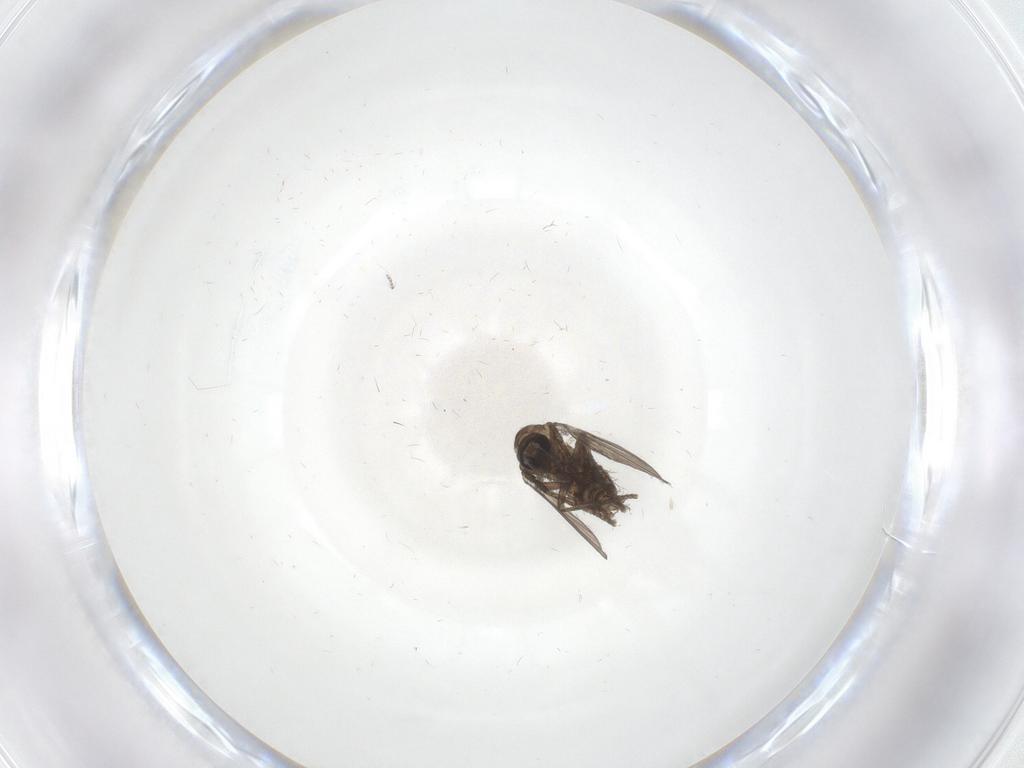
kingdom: Animalia
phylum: Arthropoda
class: Insecta
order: Diptera
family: Psychodidae
